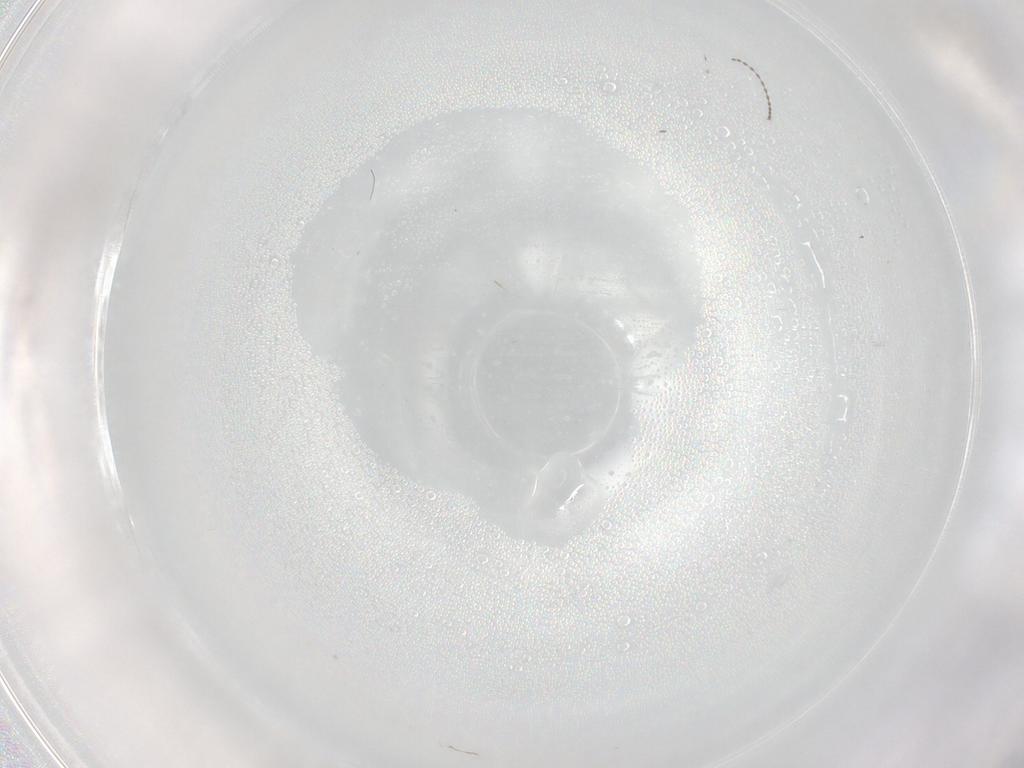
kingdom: Animalia
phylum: Arthropoda
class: Insecta
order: Diptera
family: Chironomidae
